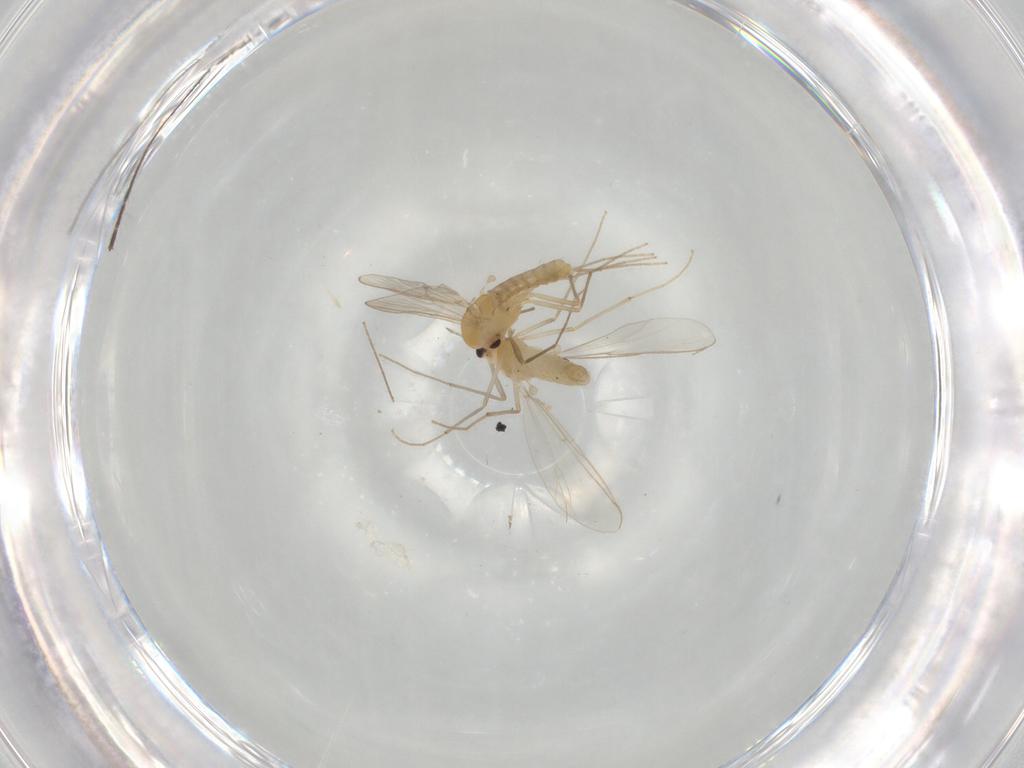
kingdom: Animalia
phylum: Arthropoda
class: Insecta
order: Diptera
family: Chironomidae
